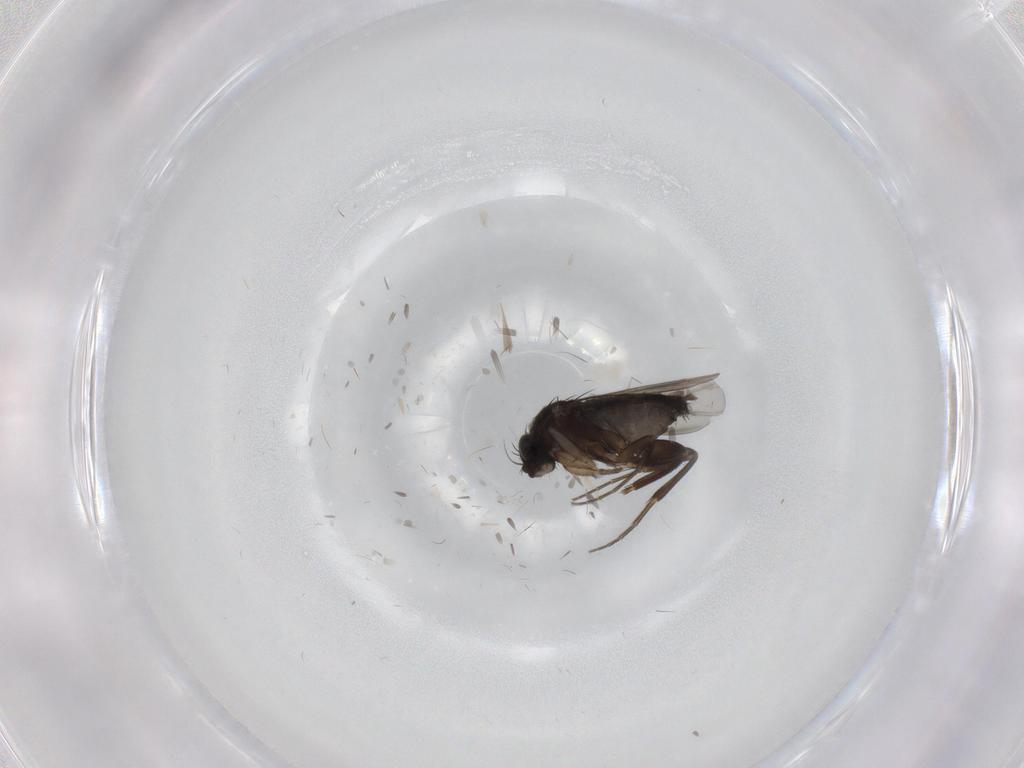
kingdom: Animalia
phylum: Arthropoda
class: Insecta
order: Diptera
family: Phoridae
